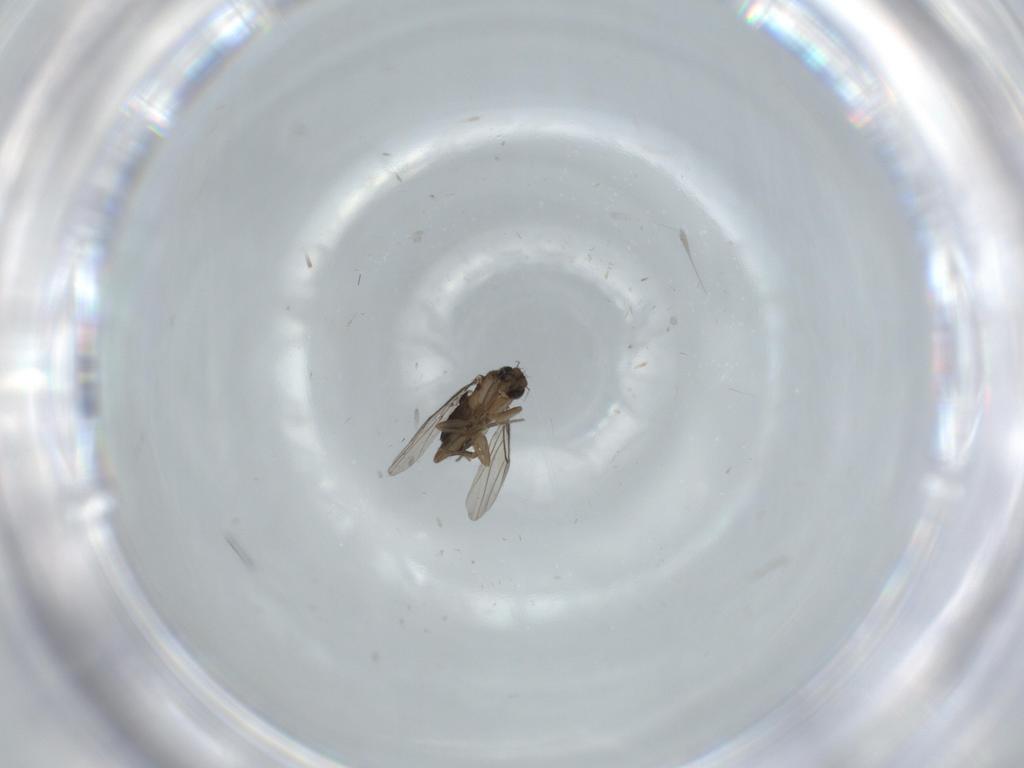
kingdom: Animalia
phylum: Arthropoda
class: Insecta
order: Diptera
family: Phoridae
